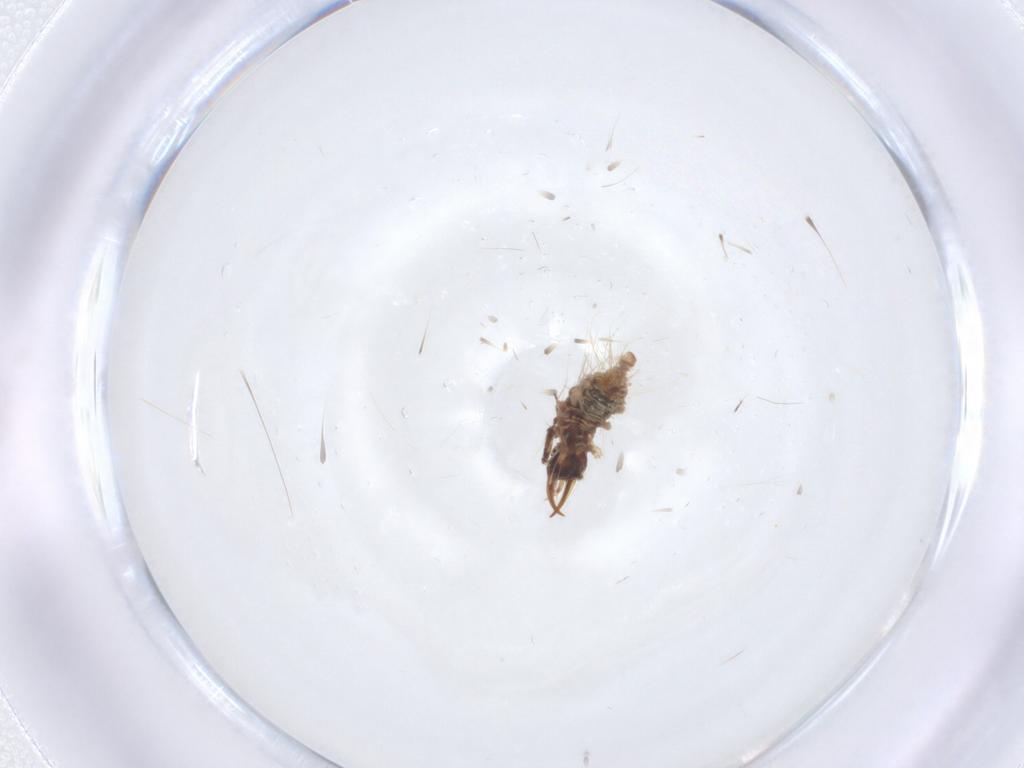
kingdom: Animalia
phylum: Arthropoda
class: Insecta
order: Neuroptera
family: Chrysopidae
